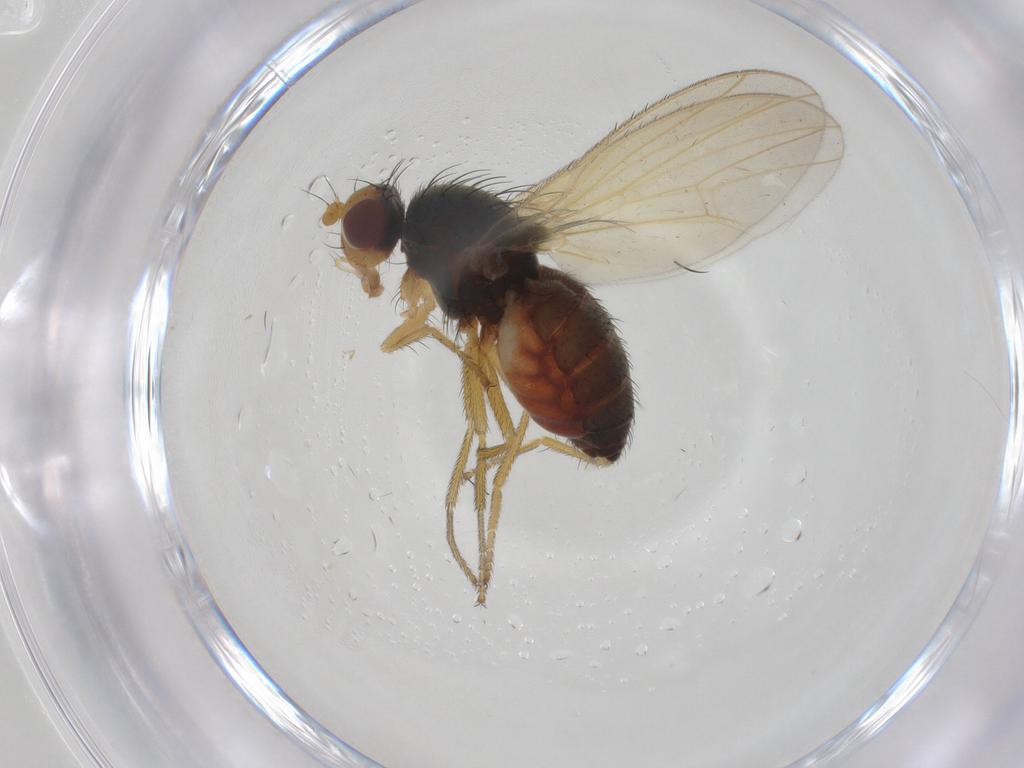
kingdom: Animalia
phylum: Arthropoda
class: Insecta
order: Diptera
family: Heleomyzidae
